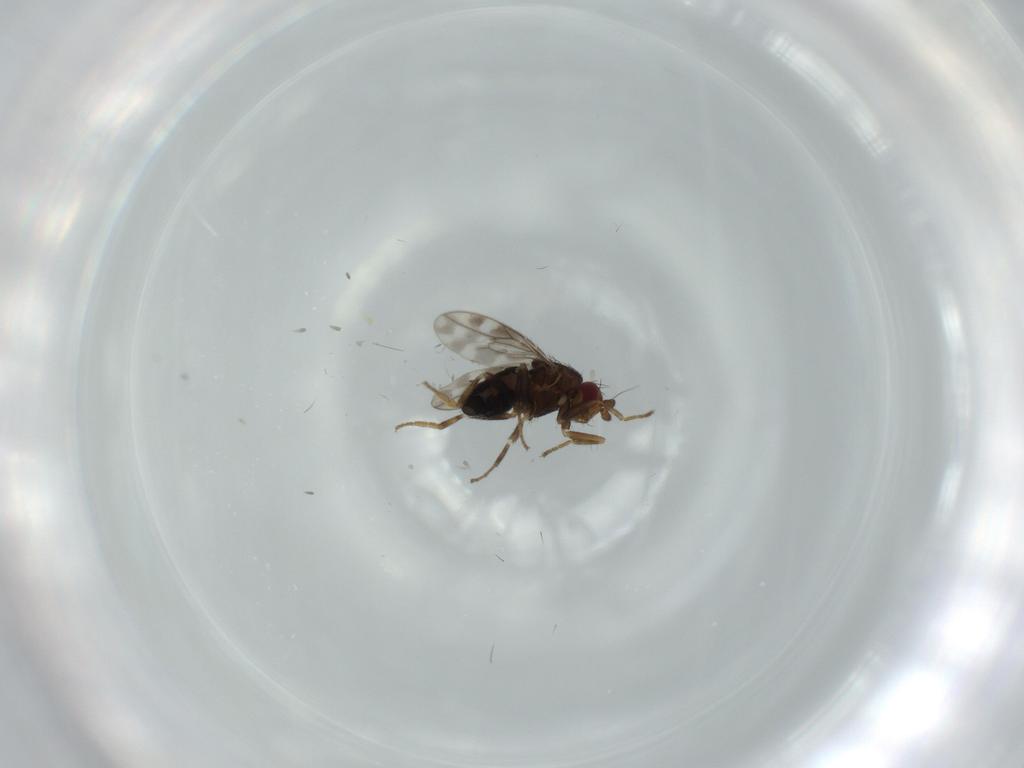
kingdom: Animalia
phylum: Arthropoda
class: Insecta
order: Diptera
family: Sphaeroceridae
